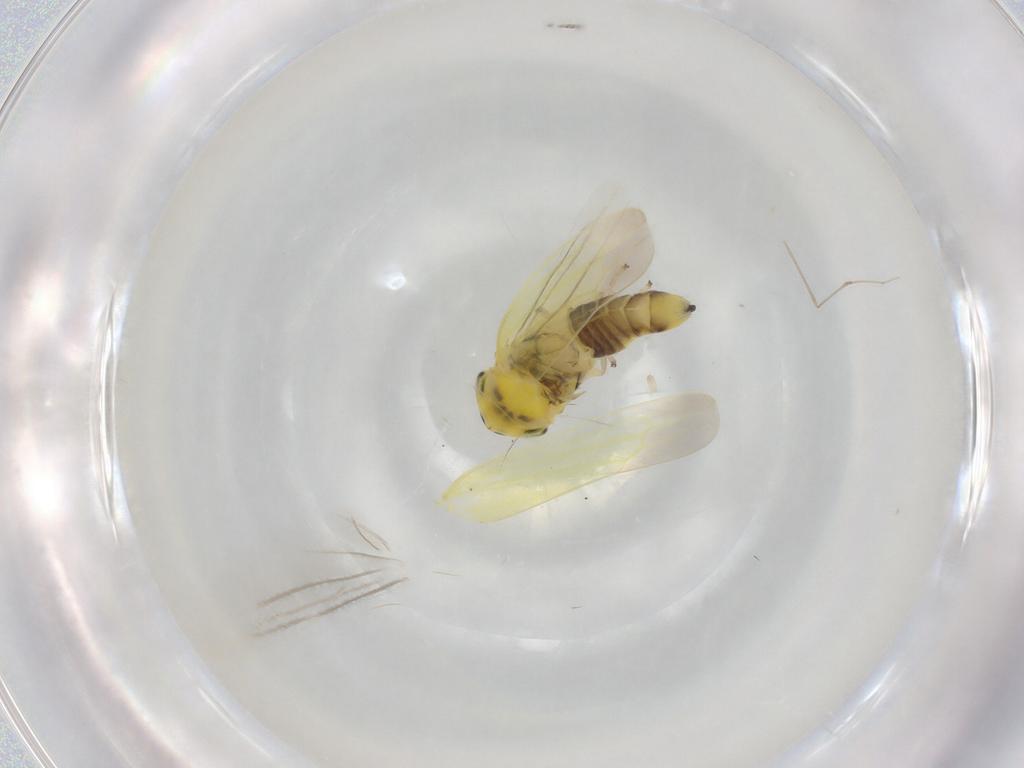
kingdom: Animalia
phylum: Arthropoda
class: Insecta
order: Hemiptera
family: Cicadellidae
